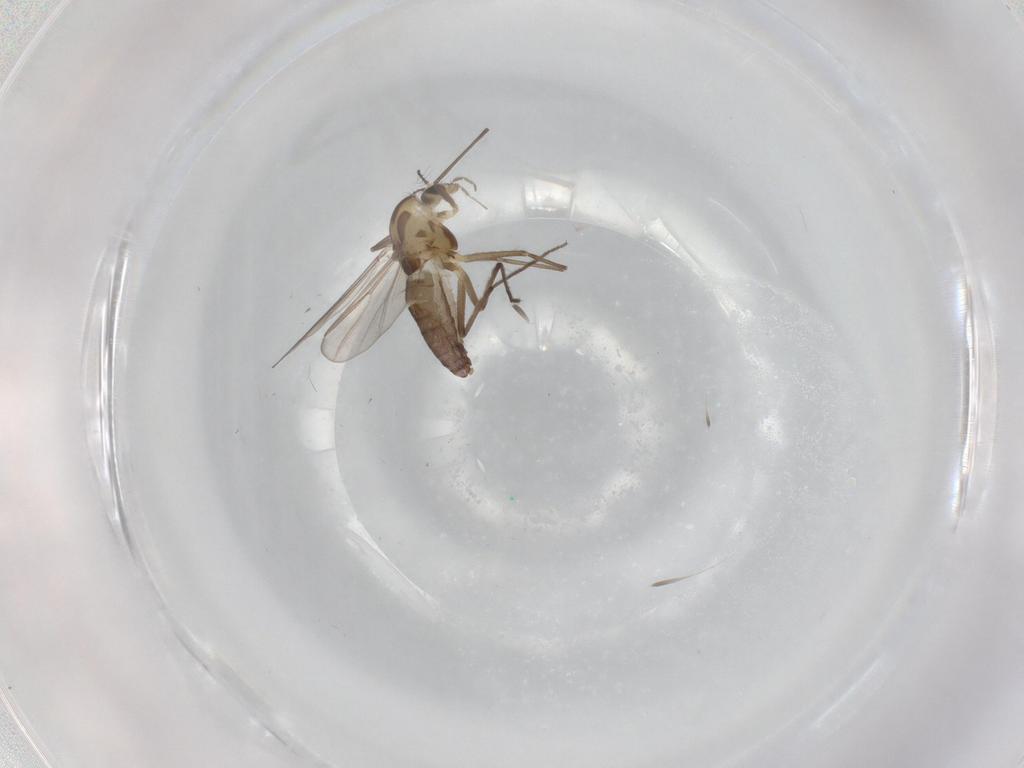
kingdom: Animalia
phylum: Arthropoda
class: Insecta
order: Diptera
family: Chironomidae
